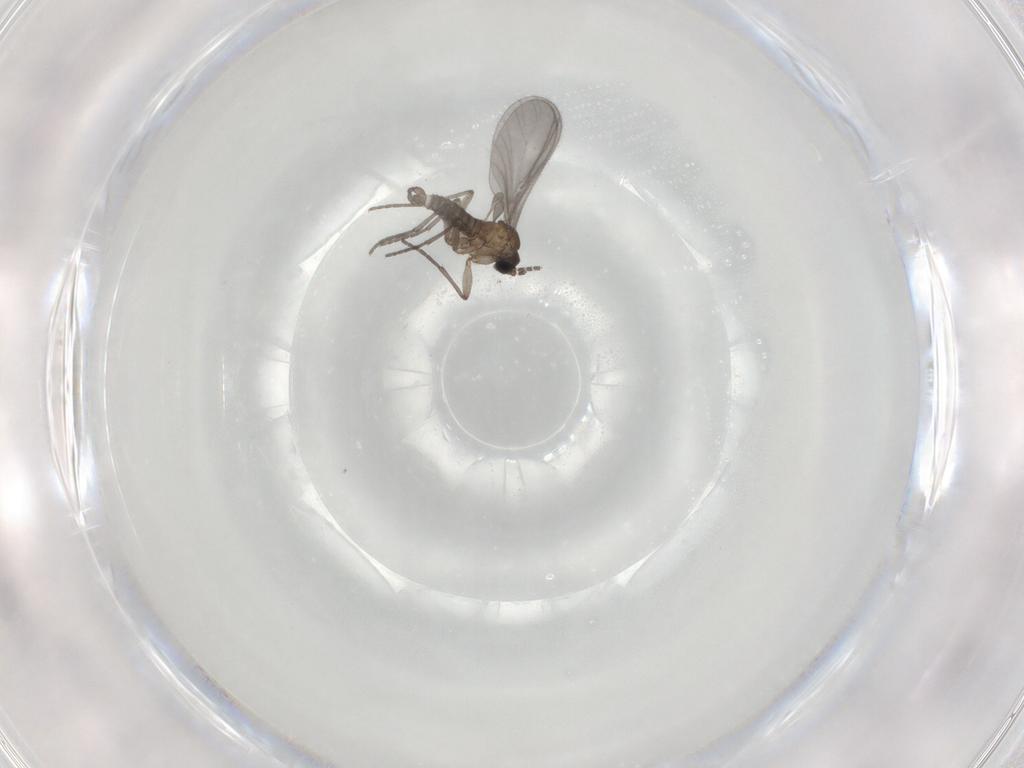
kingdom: Animalia
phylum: Arthropoda
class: Insecta
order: Diptera
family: Sciaridae
